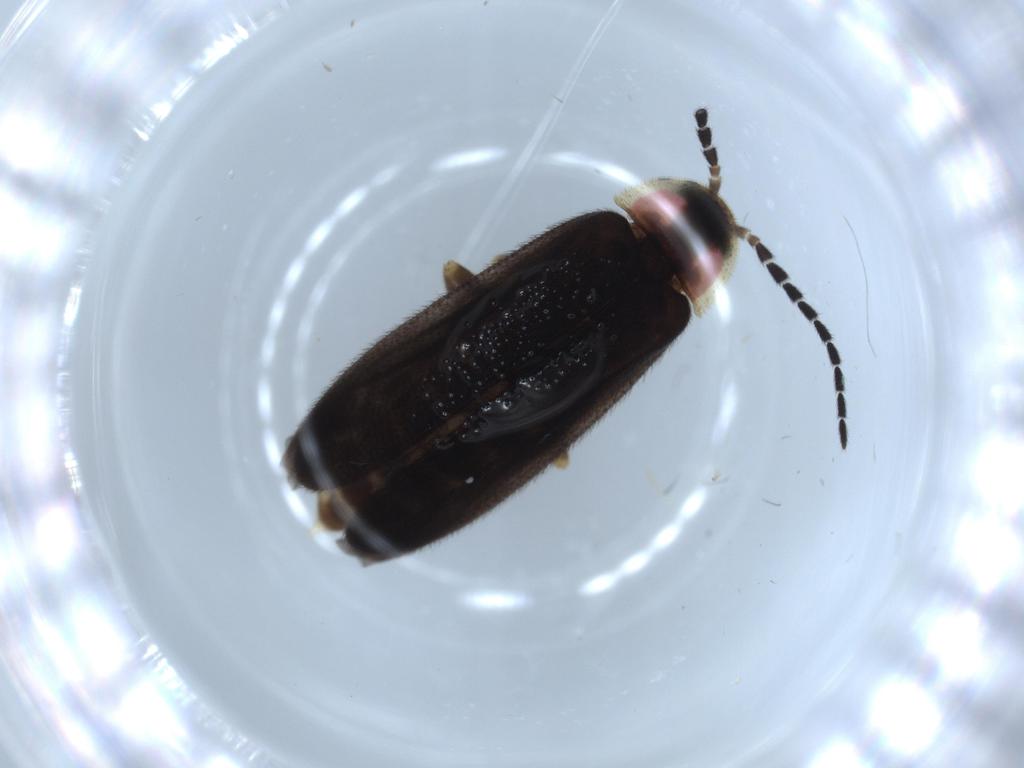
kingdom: Animalia
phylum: Arthropoda
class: Insecta
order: Coleoptera
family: Lampyridae
